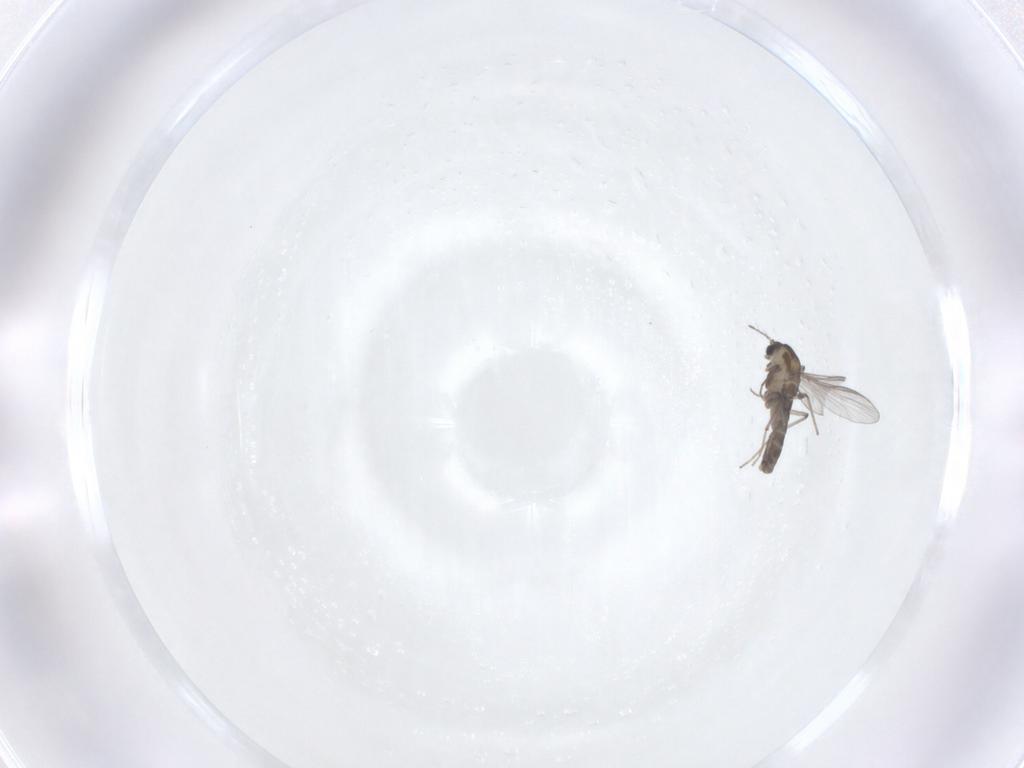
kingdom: Animalia
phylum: Arthropoda
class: Insecta
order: Diptera
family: Chironomidae
